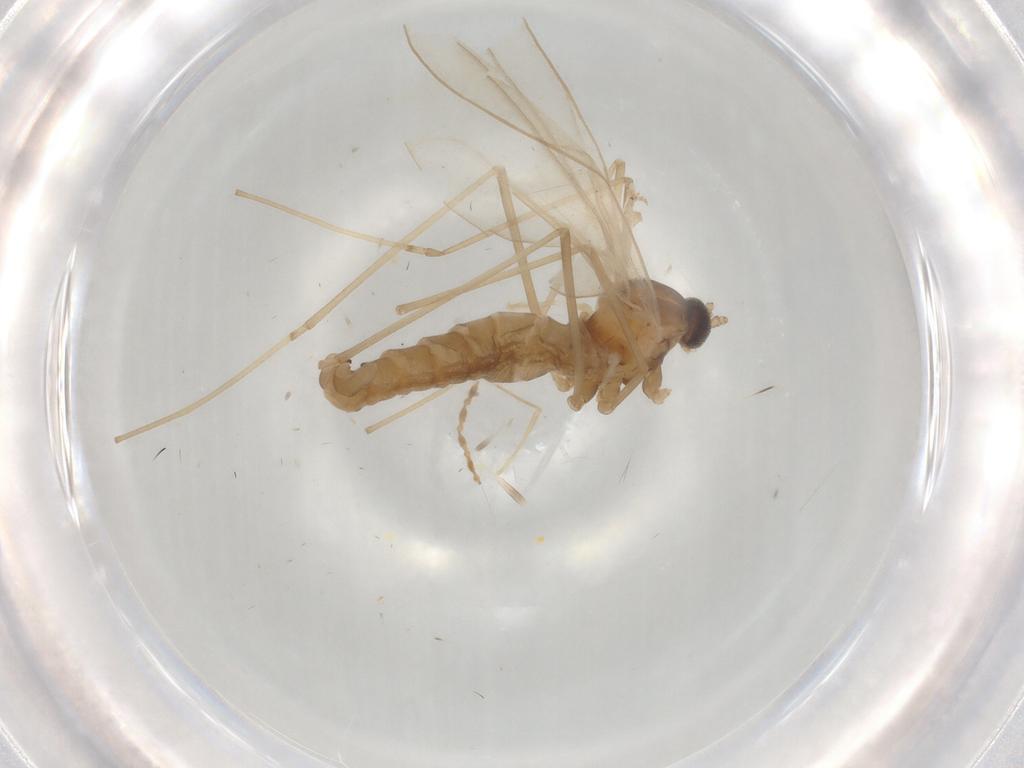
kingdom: Animalia
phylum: Arthropoda
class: Insecta
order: Diptera
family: Cecidomyiidae
